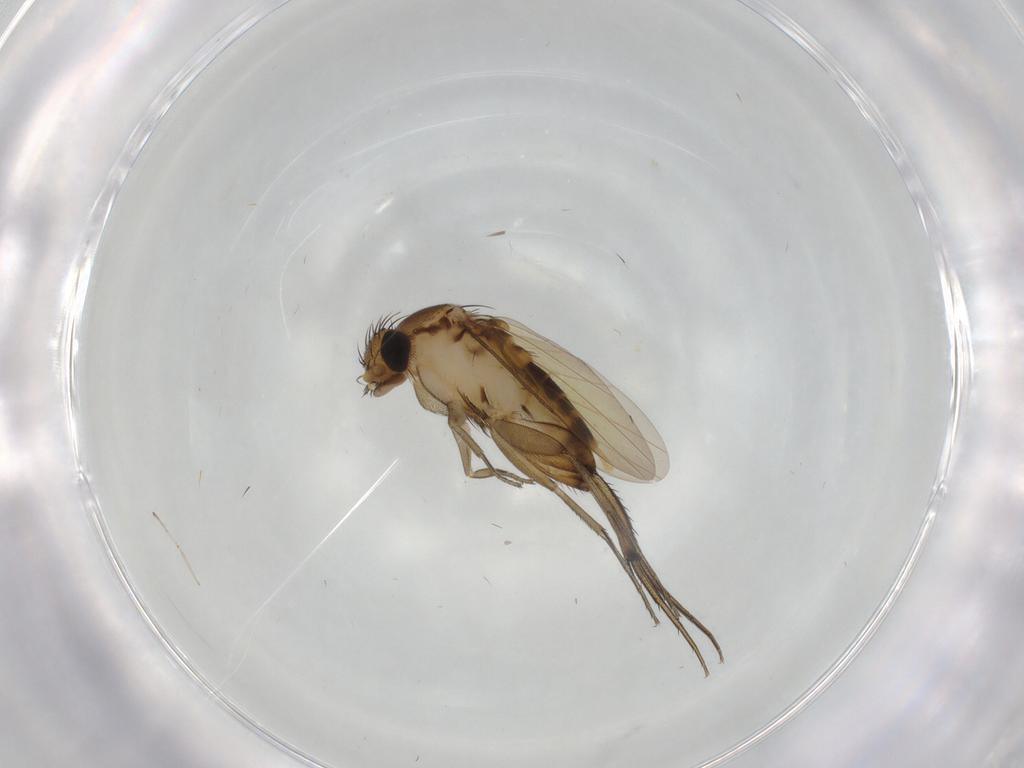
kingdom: Animalia
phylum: Arthropoda
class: Insecta
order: Diptera
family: Phoridae
